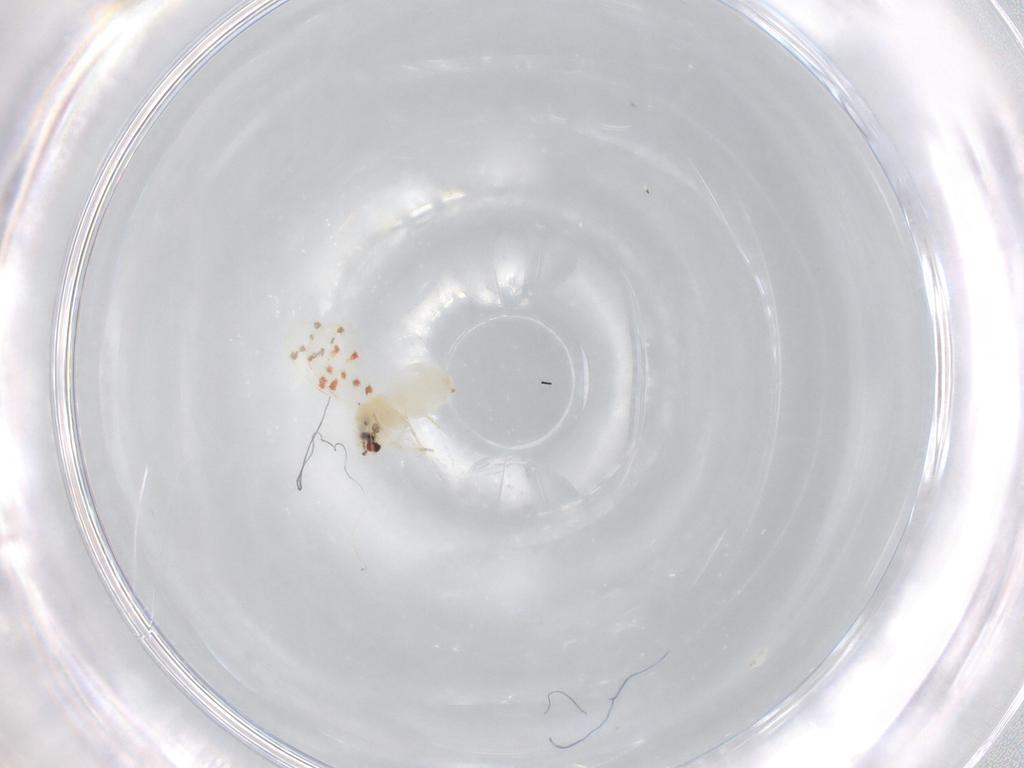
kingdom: Animalia
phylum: Arthropoda
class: Insecta
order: Hemiptera
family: Aleyrodidae
